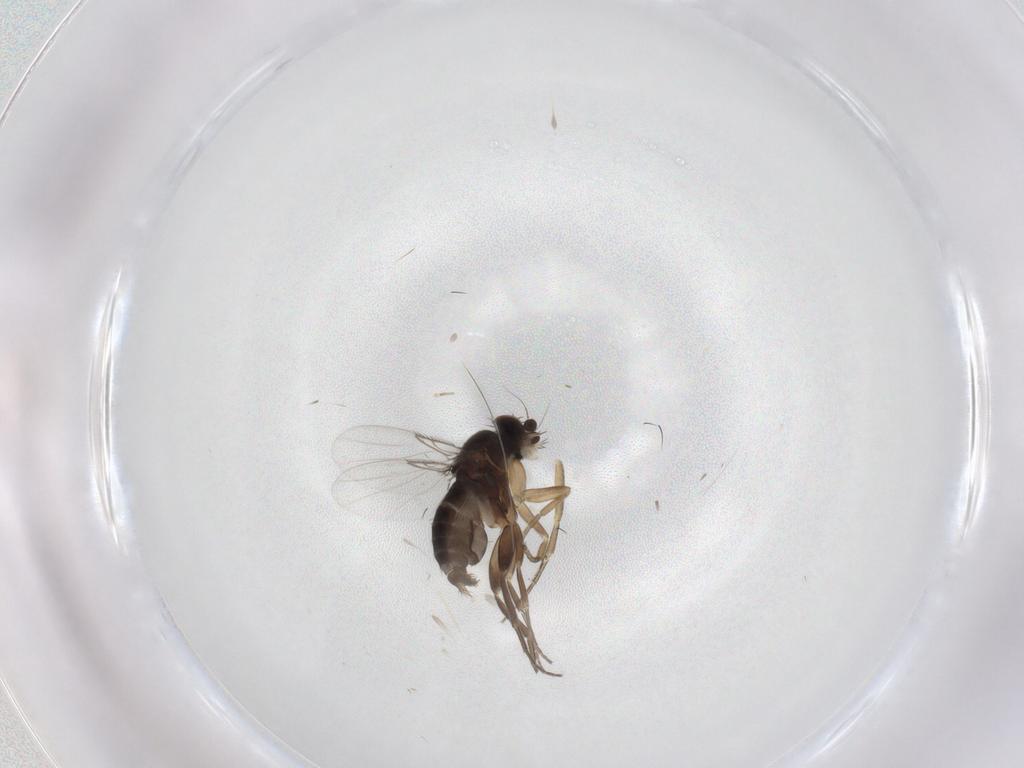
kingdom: Animalia
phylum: Arthropoda
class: Insecta
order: Diptera
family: Phoridae
